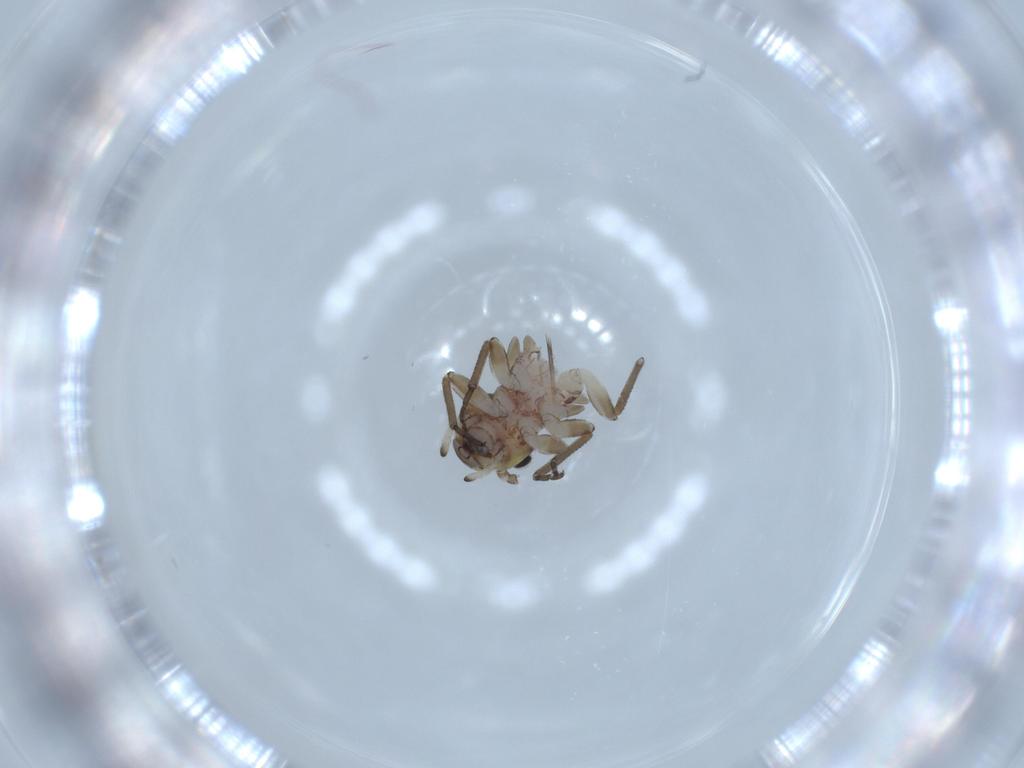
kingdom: Animalia
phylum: Arthropoda
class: Insecta
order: Psocodea
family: Psocidae
